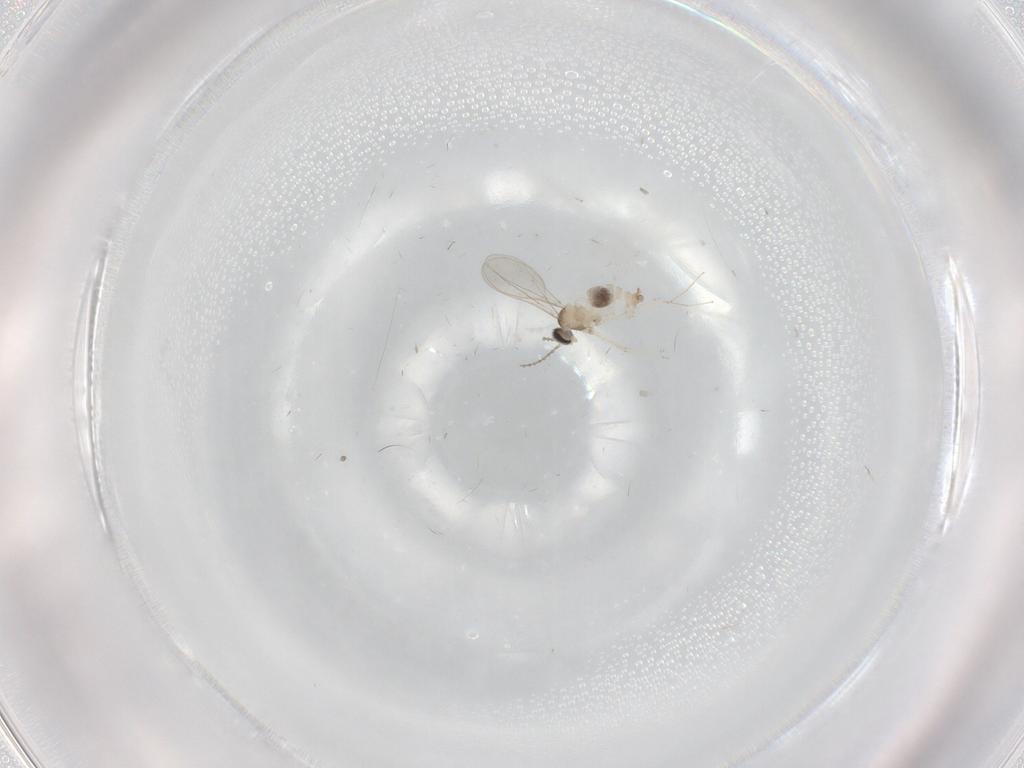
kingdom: Animalia
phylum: Arthropoda
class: Insecta
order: Diptera
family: Cecidomyiidae
